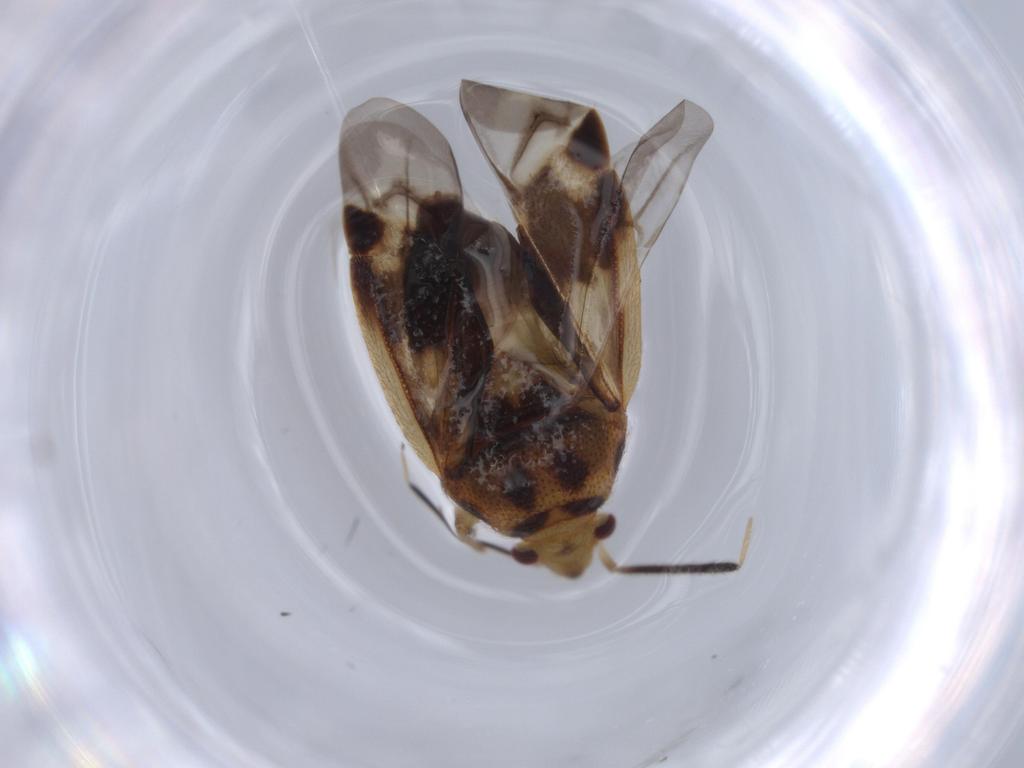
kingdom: Animalia
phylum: Arthropoda
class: Insecta
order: Hemiptera
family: Miridae
